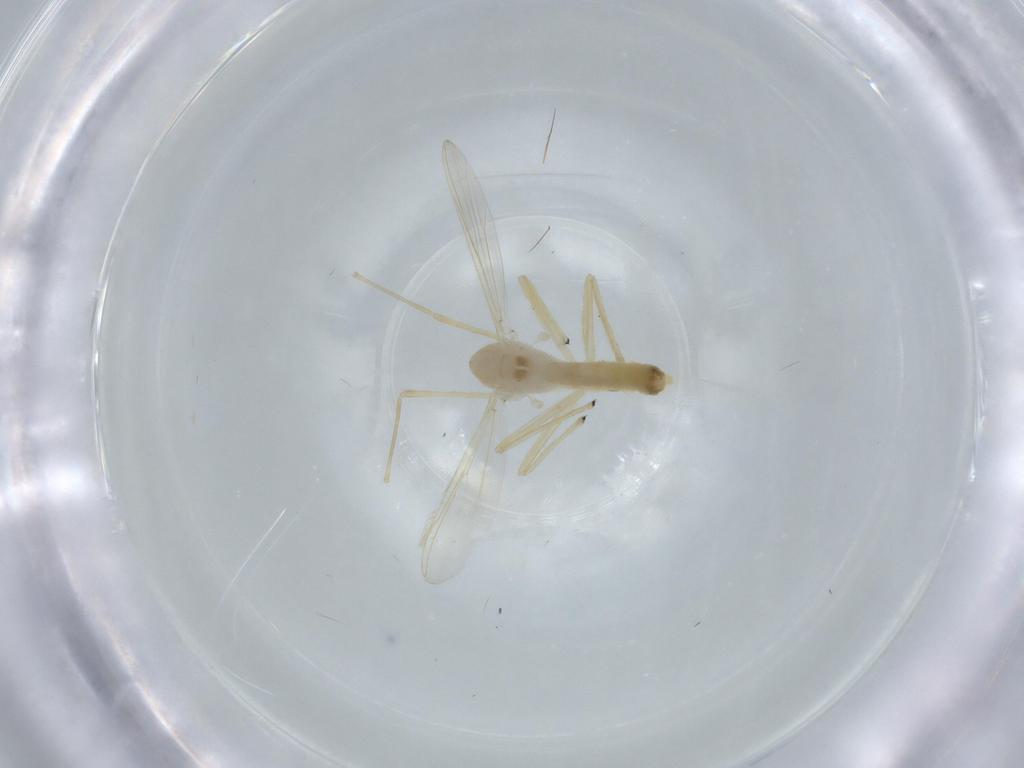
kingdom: Animalia
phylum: Arthropoda
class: Insecta
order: Diptera
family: Chironomidae
